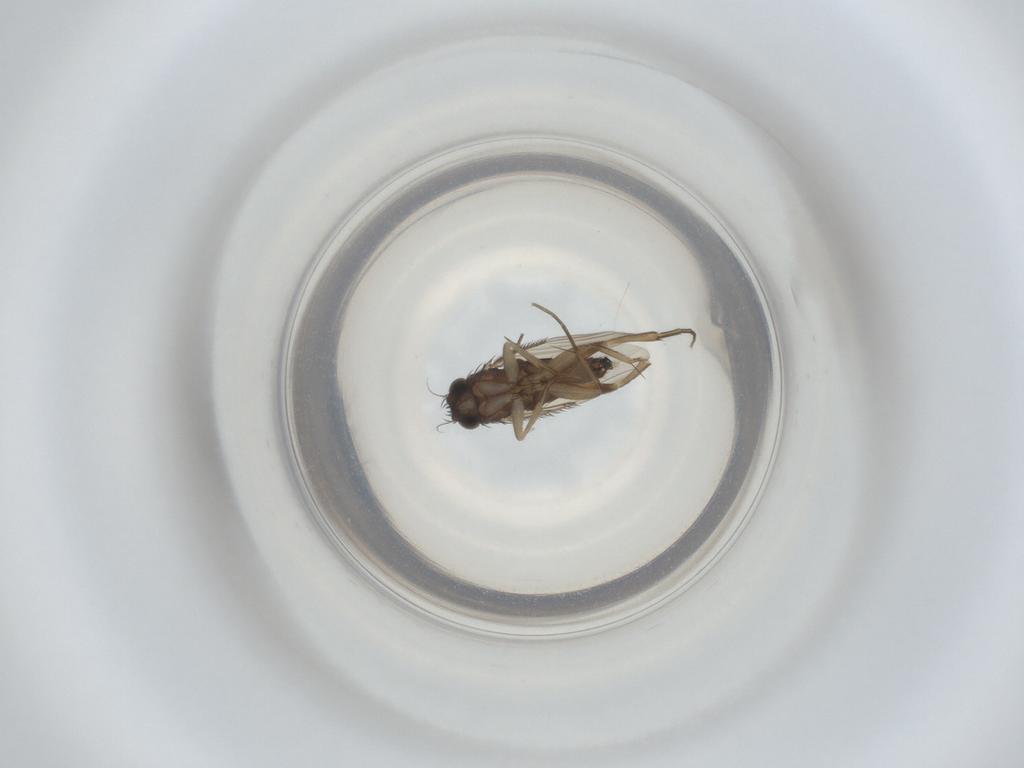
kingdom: Animalia
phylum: Arthropoda
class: Insecta
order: Diptera
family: Phoridae
